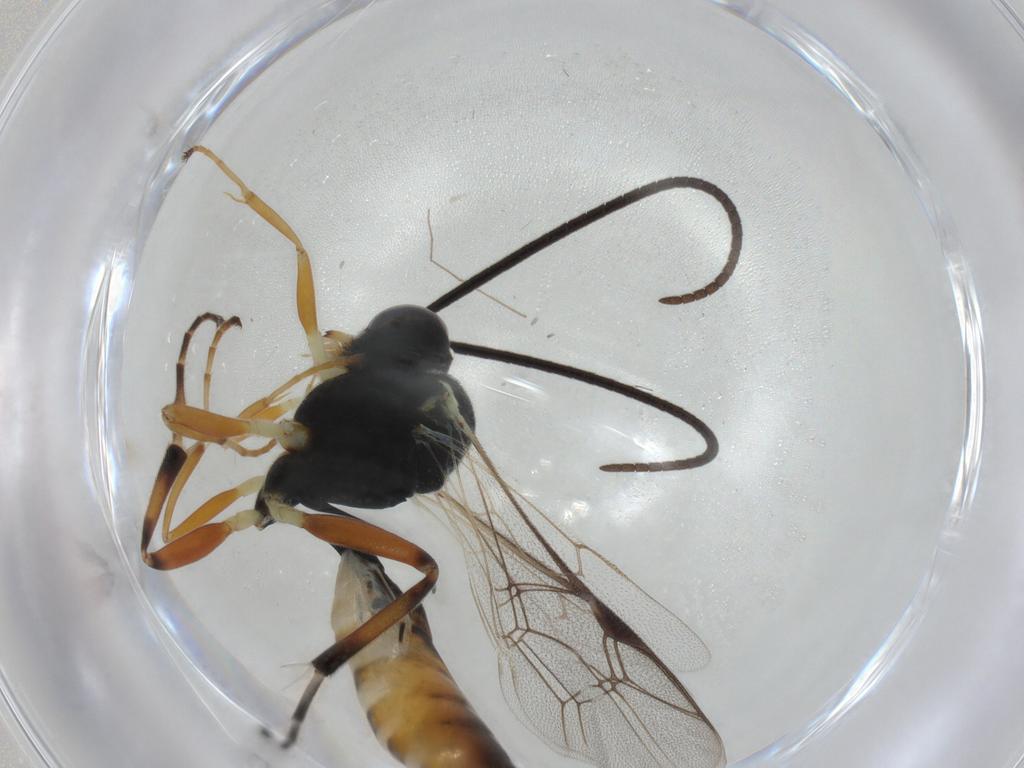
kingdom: Animalia
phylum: Arthropoda
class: Insecta
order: Hymenoptera
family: Ichneumonidae
